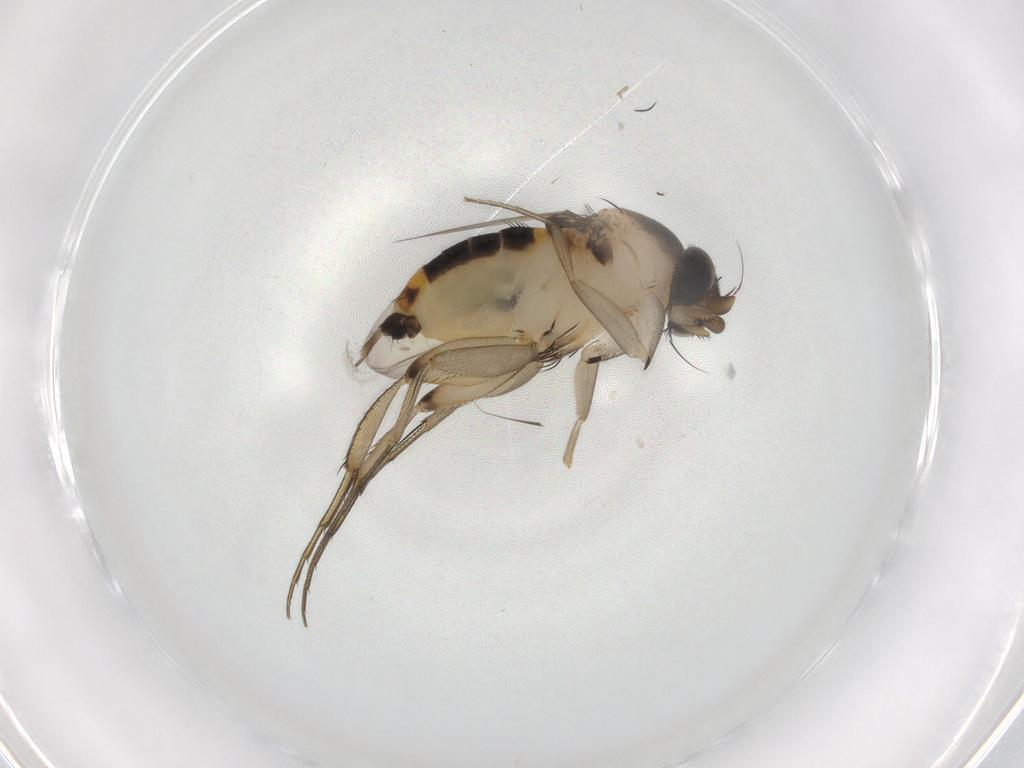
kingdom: Animalia
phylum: Arthropoda
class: Insecta
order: Diptera
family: Phoridae
